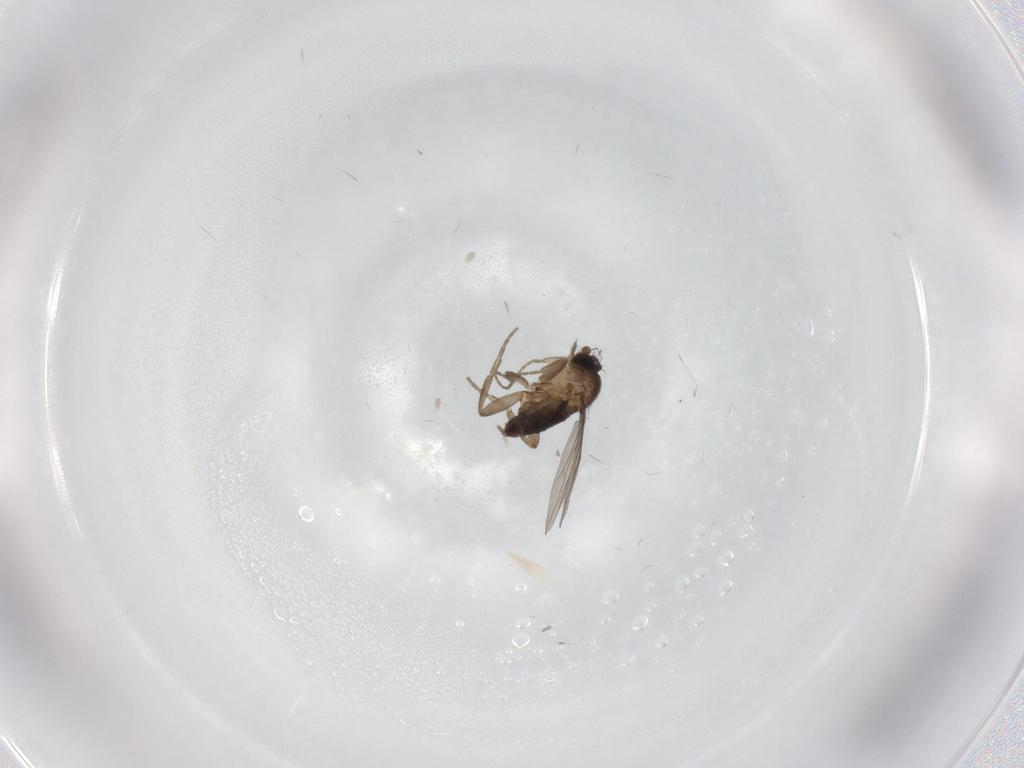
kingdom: Animalia
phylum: Arthropoda
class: Insecta
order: Diptera
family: Phoridae
